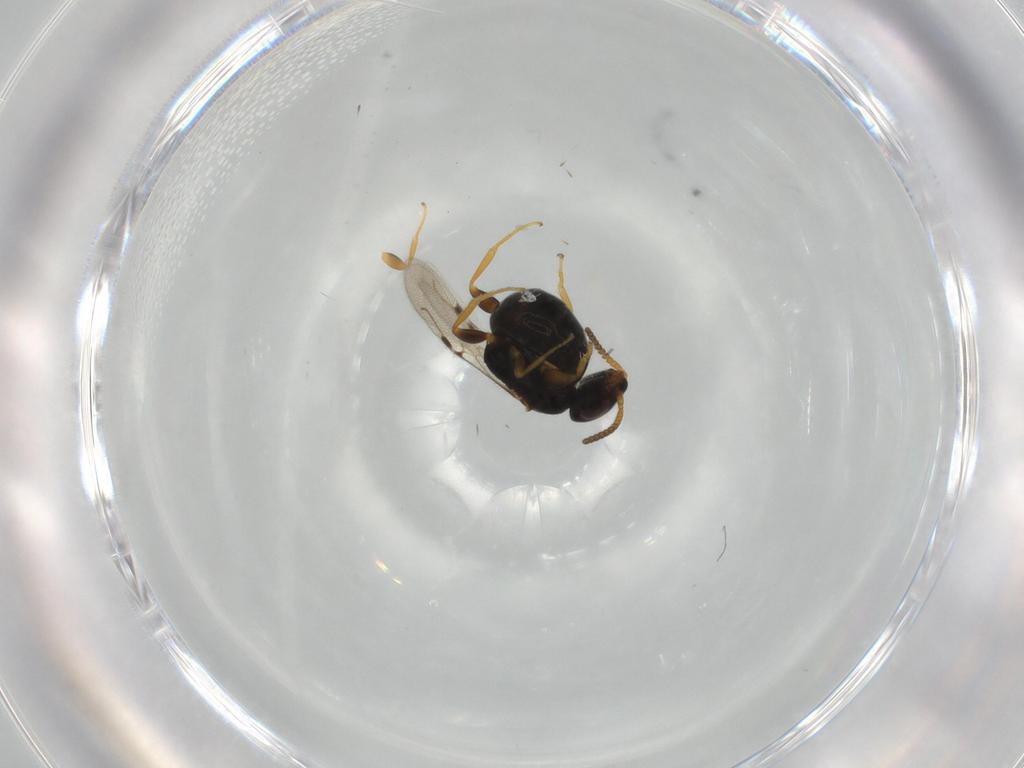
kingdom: Animalia
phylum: Arthropoda
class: Insecta
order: Hymenoptera
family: Bethylidae
